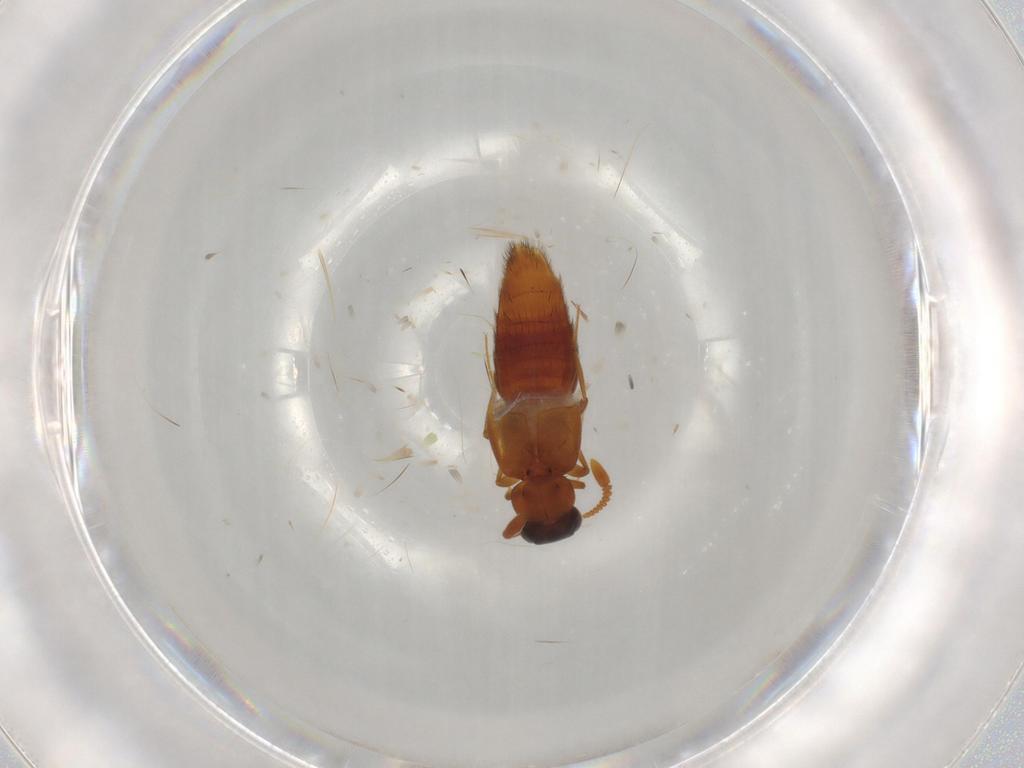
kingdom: Animalia
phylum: Arthropoda
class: Insecta
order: Coleoptera
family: Staphylinidae
